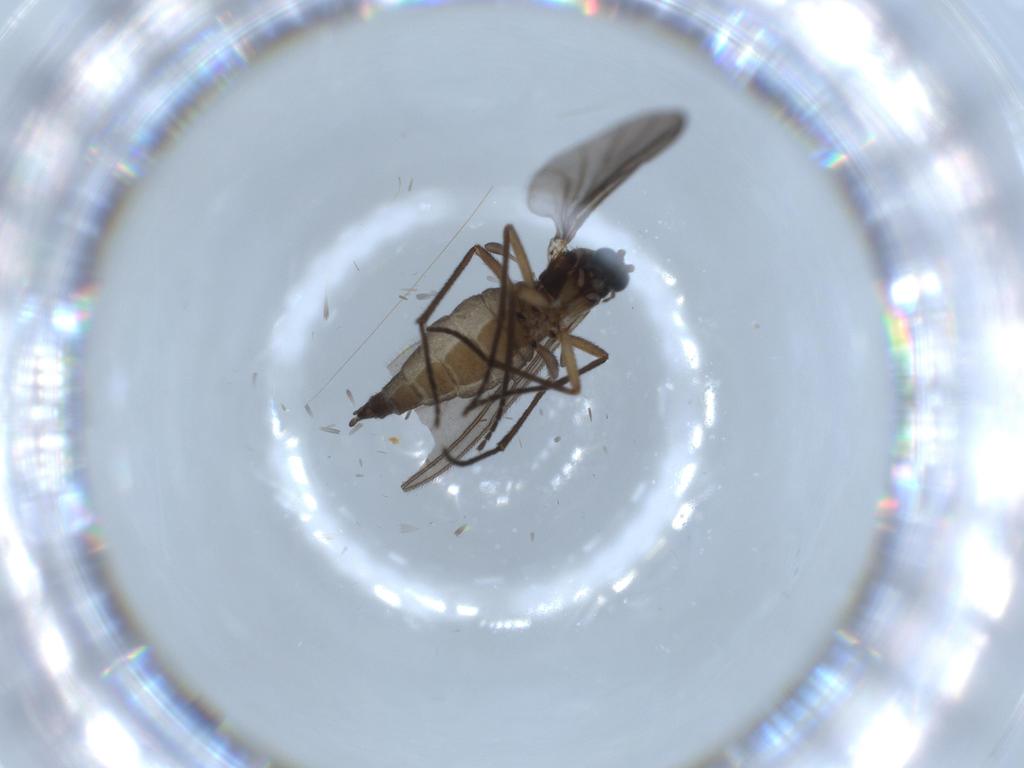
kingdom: Animalia
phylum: Arthropoda
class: Insecta
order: Diptera
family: Sciaridae
